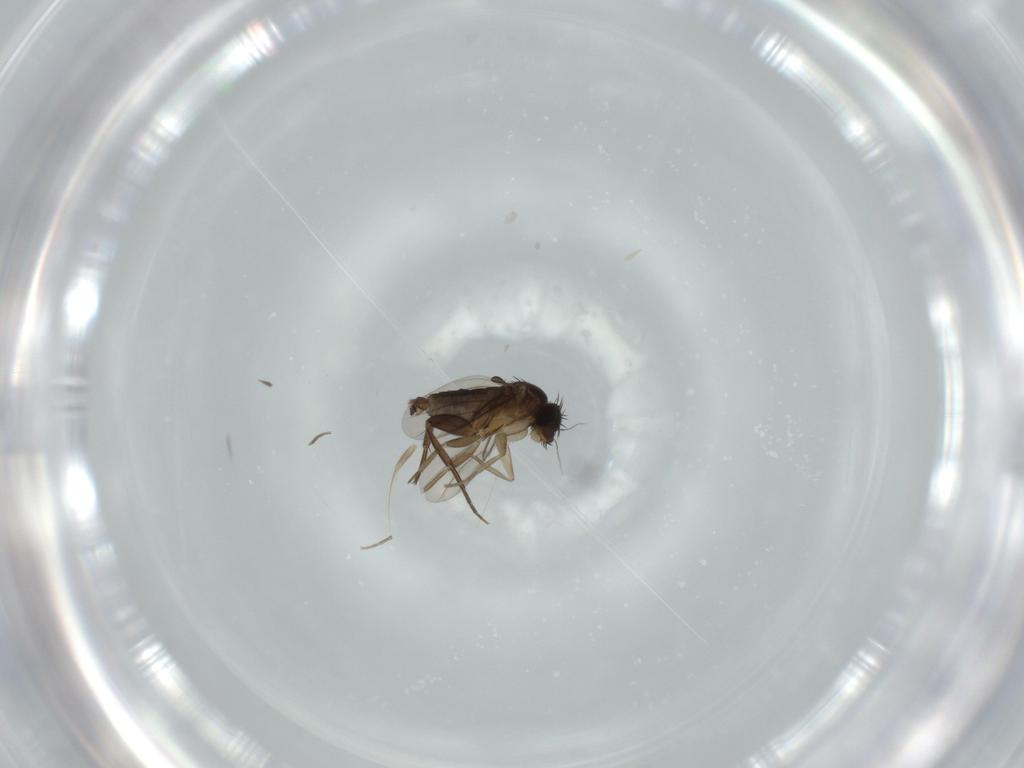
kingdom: Animalia
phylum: Arthropoda
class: Insecta
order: Diptera
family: Phoridae
